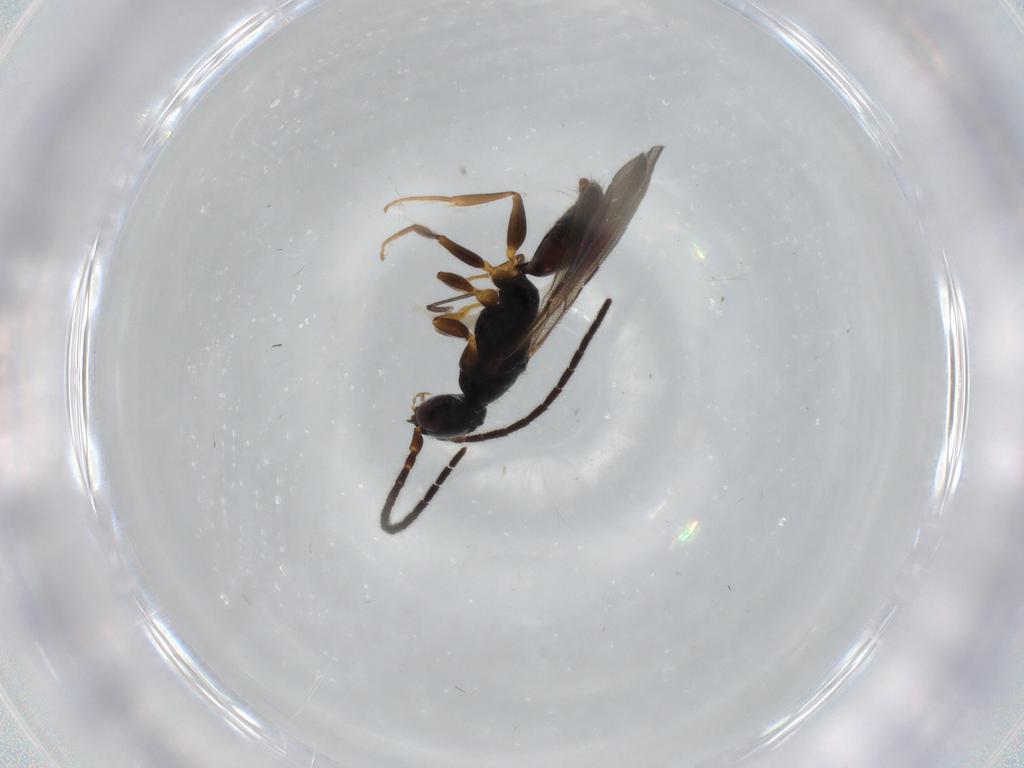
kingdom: Animalia
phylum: Arthropoda
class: Insecta
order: Hymenoptera
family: Bethylidae
